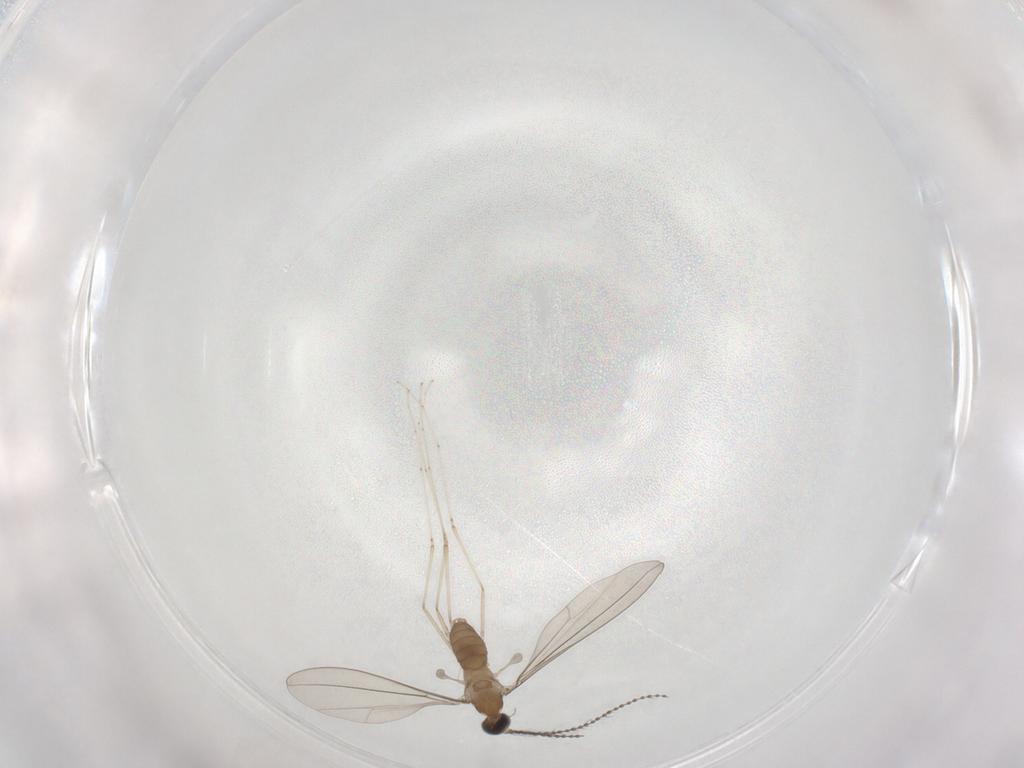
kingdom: Animalia
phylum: Arthropoda
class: Insecta
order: Diptera
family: Cecidomyiidae
